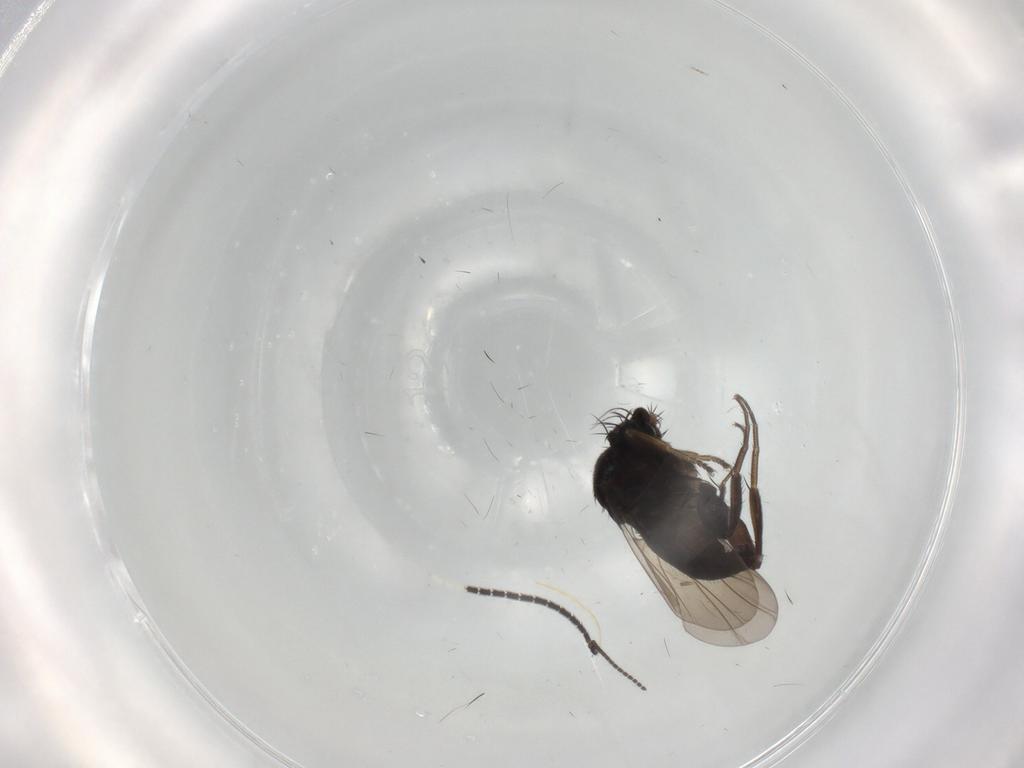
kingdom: Animalia
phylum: Arthropoda
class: Insecta
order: Diptera
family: Phoridae
